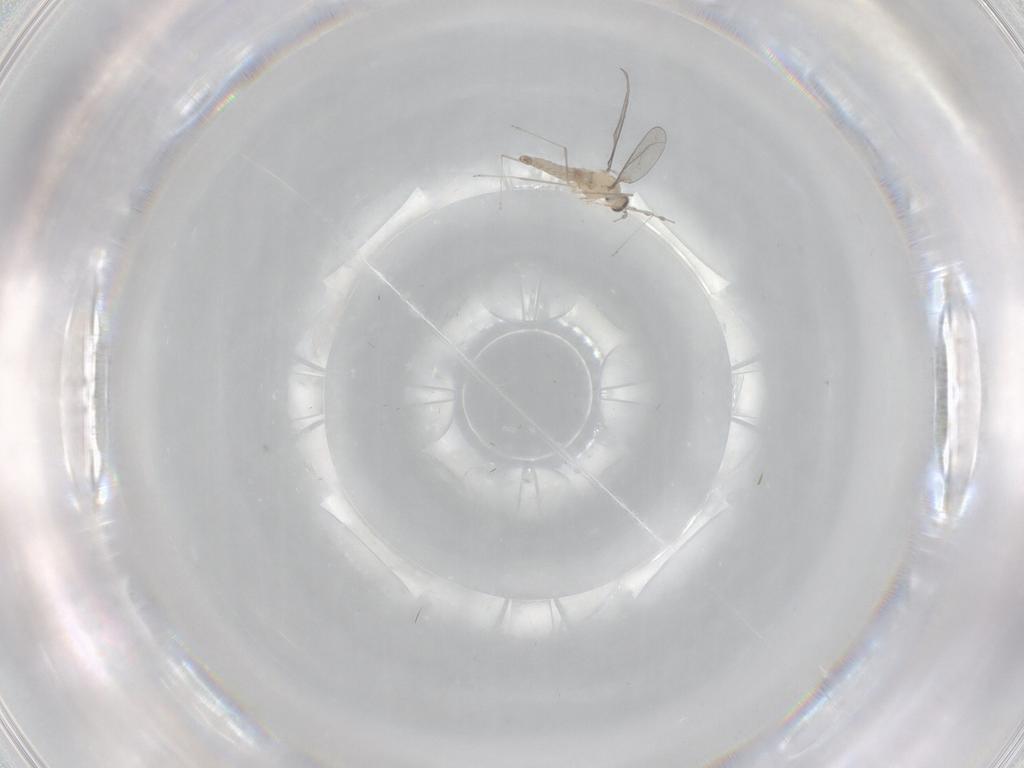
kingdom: Animalia
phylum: Arthropoda
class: Insecta
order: Diptera
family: Cecidomyiidae
